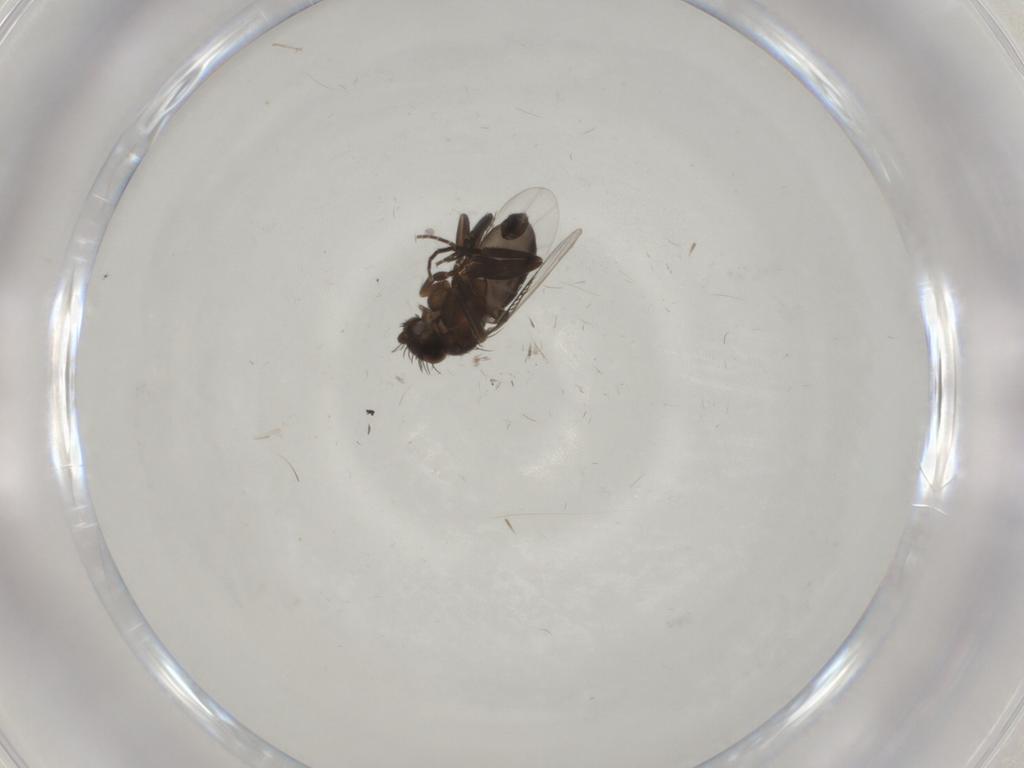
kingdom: Animalia
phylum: Arthropoda
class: Insecta
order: Diptera
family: Phoridae
